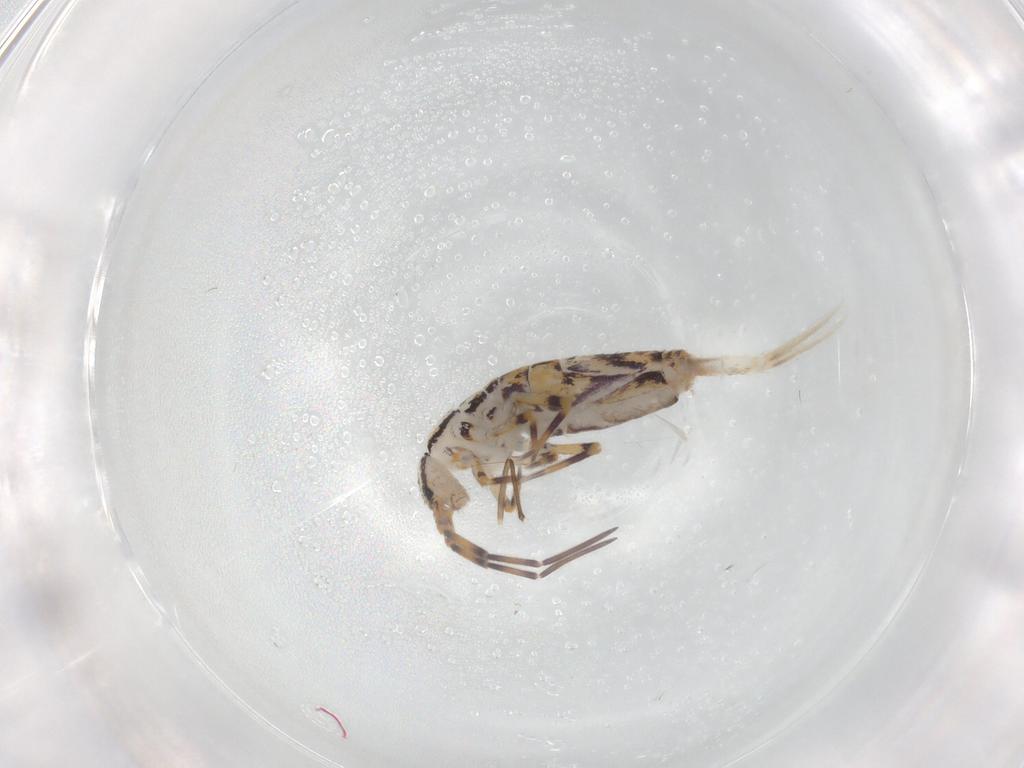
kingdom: Animalia
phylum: Arthropoda
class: Collembola
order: Entomobryomorpha
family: Entomobryidae
